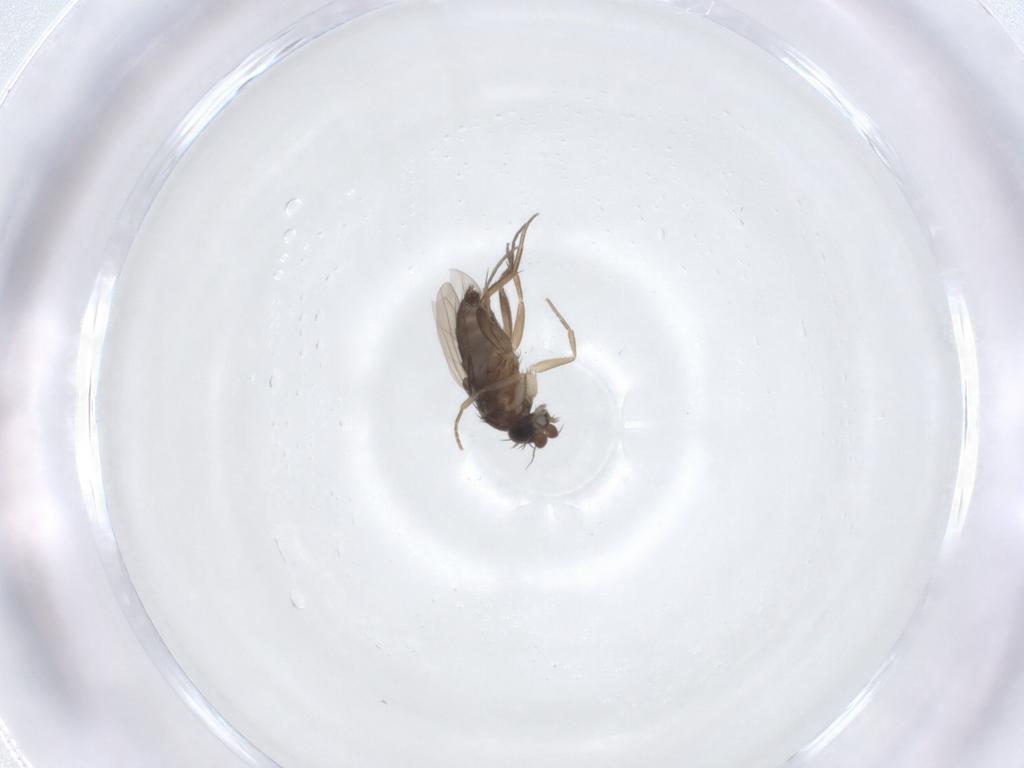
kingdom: Animalia
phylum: Arthropoda
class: Insecta
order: Diptera
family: Phoridae
